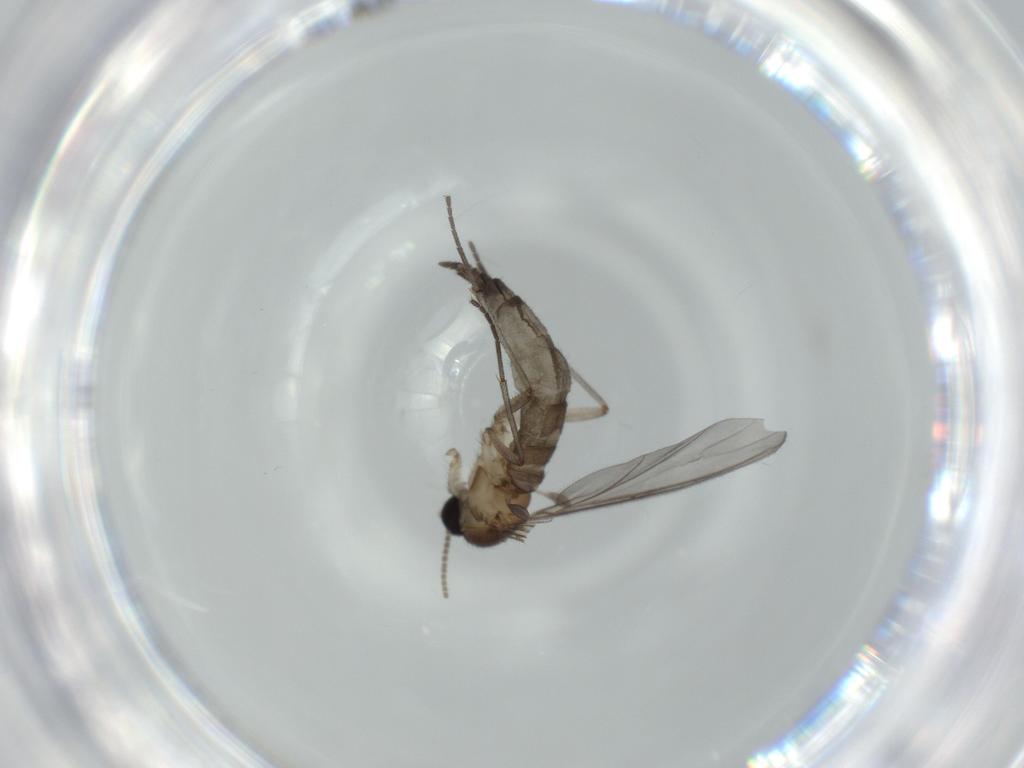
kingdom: Animalia
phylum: Arthropoda
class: Insecta
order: Diptera
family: Sciaridae
